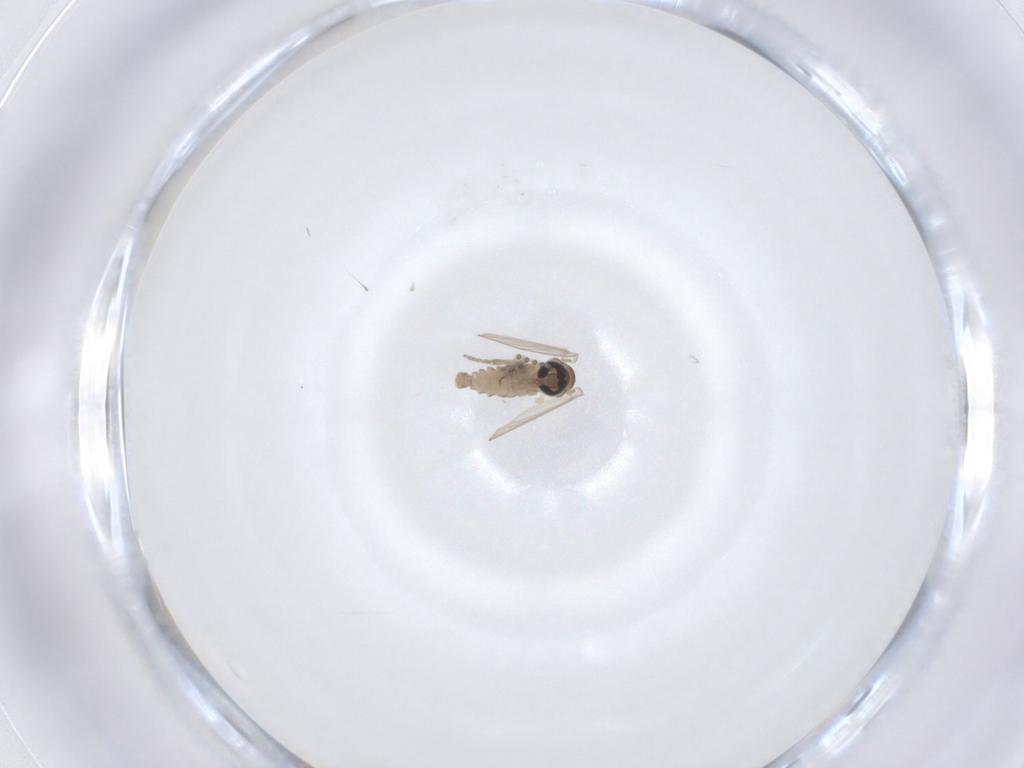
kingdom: Animalia
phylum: Arthropoda
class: Insecta
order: Diptera
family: Psychodidae
